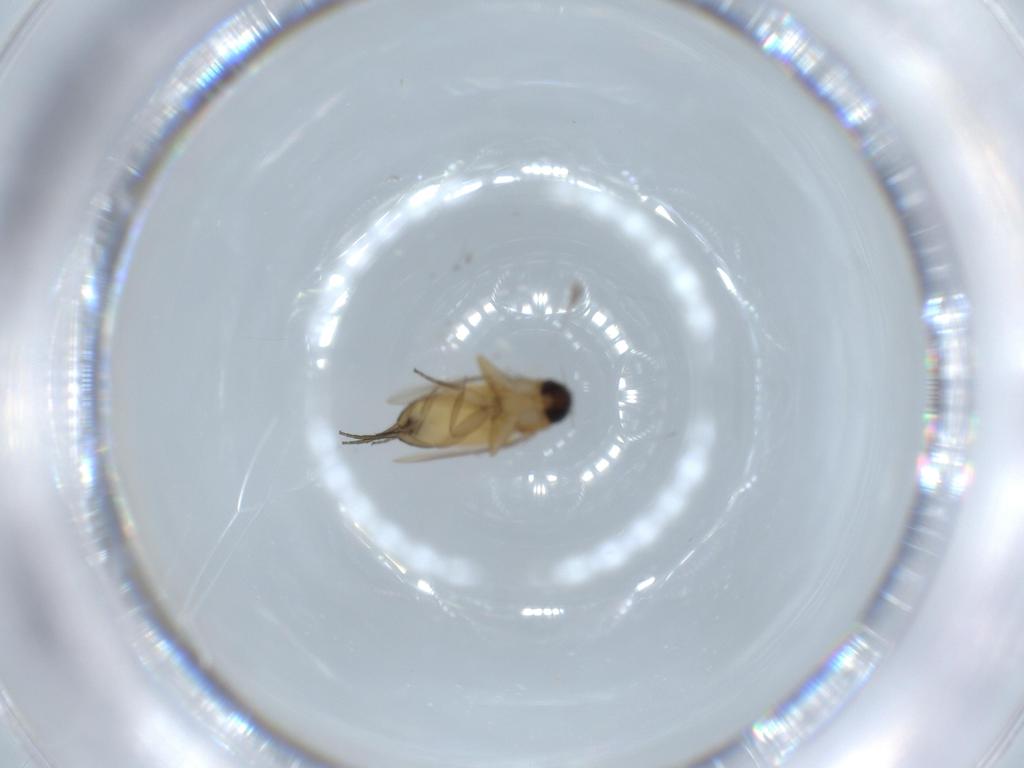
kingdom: Animalia
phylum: Arthropoda
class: Insecta
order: Diptera
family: Phoridae
